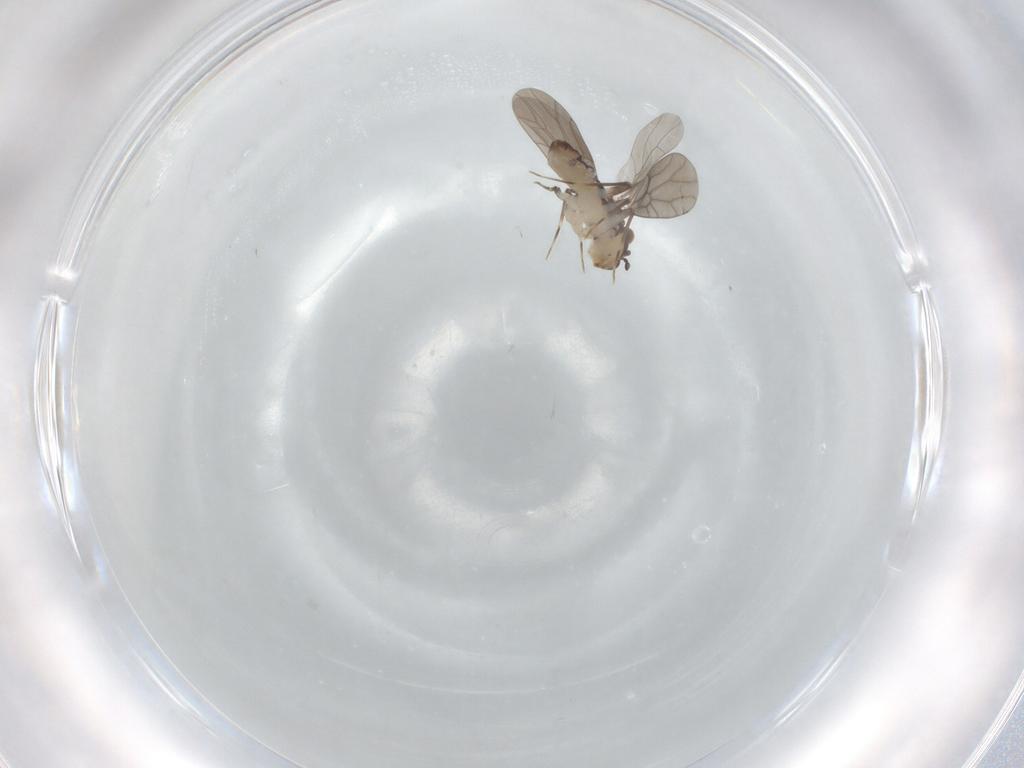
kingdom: Animalia
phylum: Arthropoda
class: Insecta
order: Psocodea
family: Lepidopsocidae
